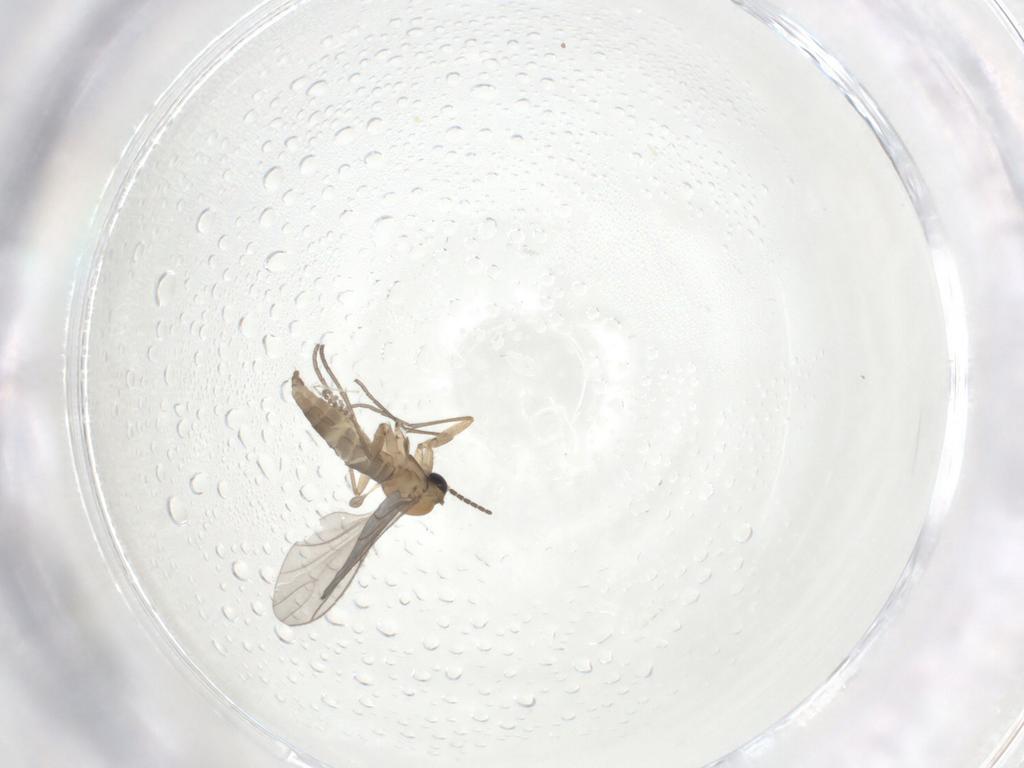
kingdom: Animalia
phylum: Arthropoda
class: Insecta
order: Diptera
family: Sciaridae
